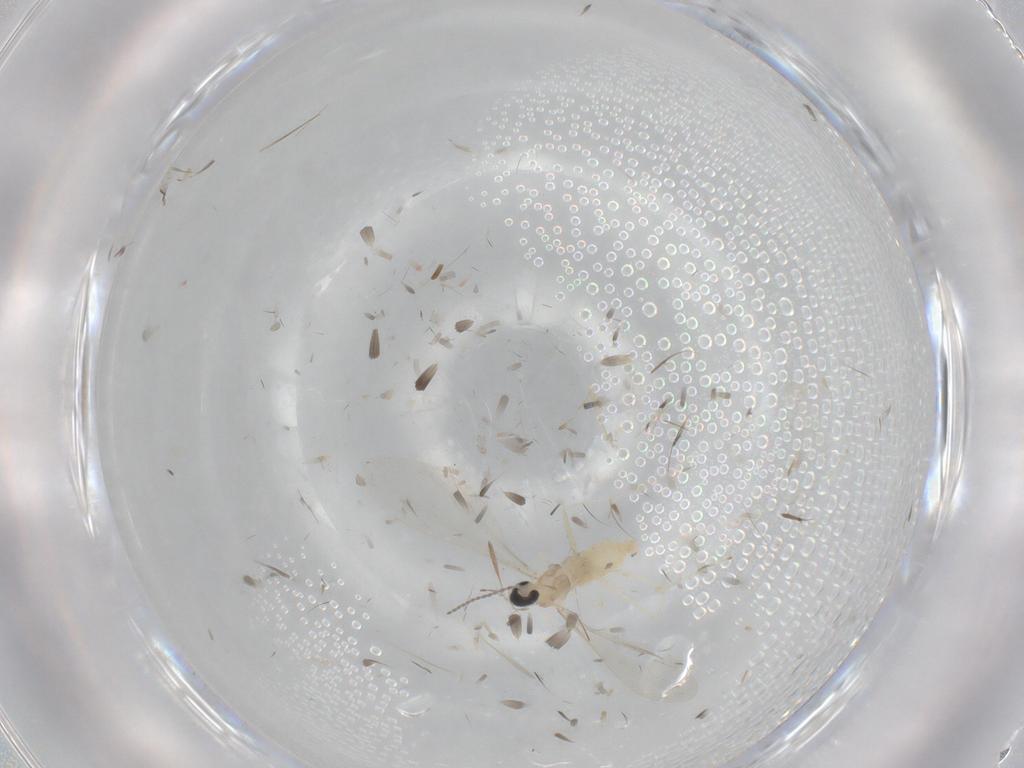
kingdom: Animalia
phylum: Arthropoda
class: Insecta
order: Diptera
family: Cecidomyiidae
